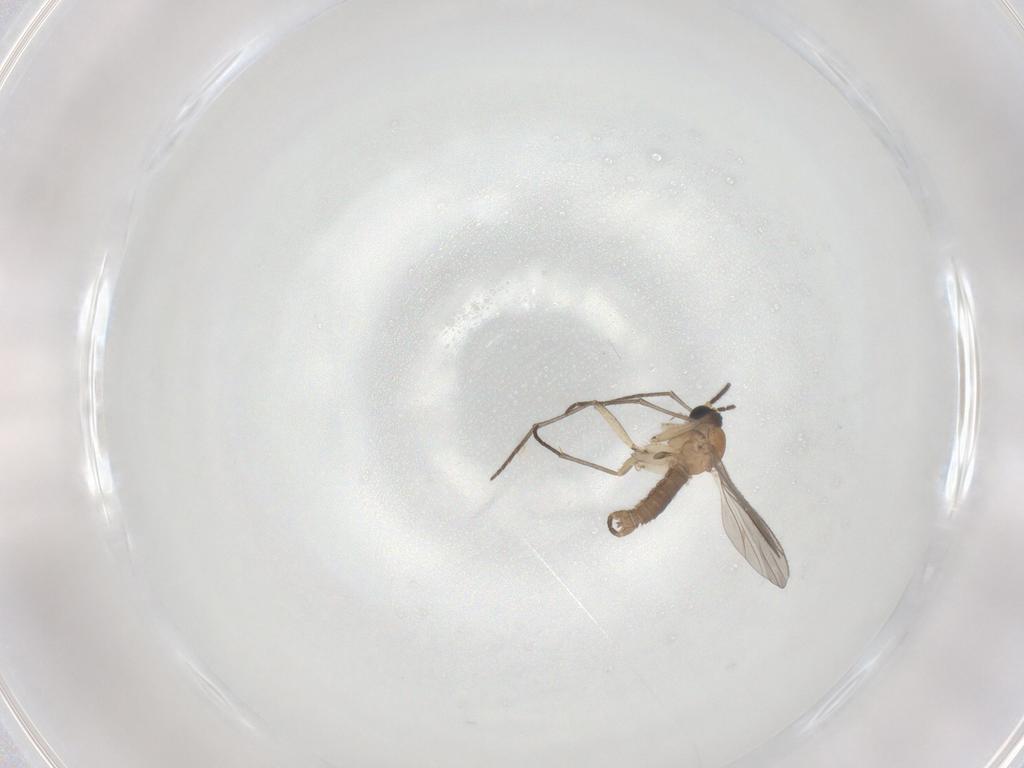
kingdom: Animalia
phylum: Arthropoda
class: Insecta
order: Diptera
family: Sciaridae
